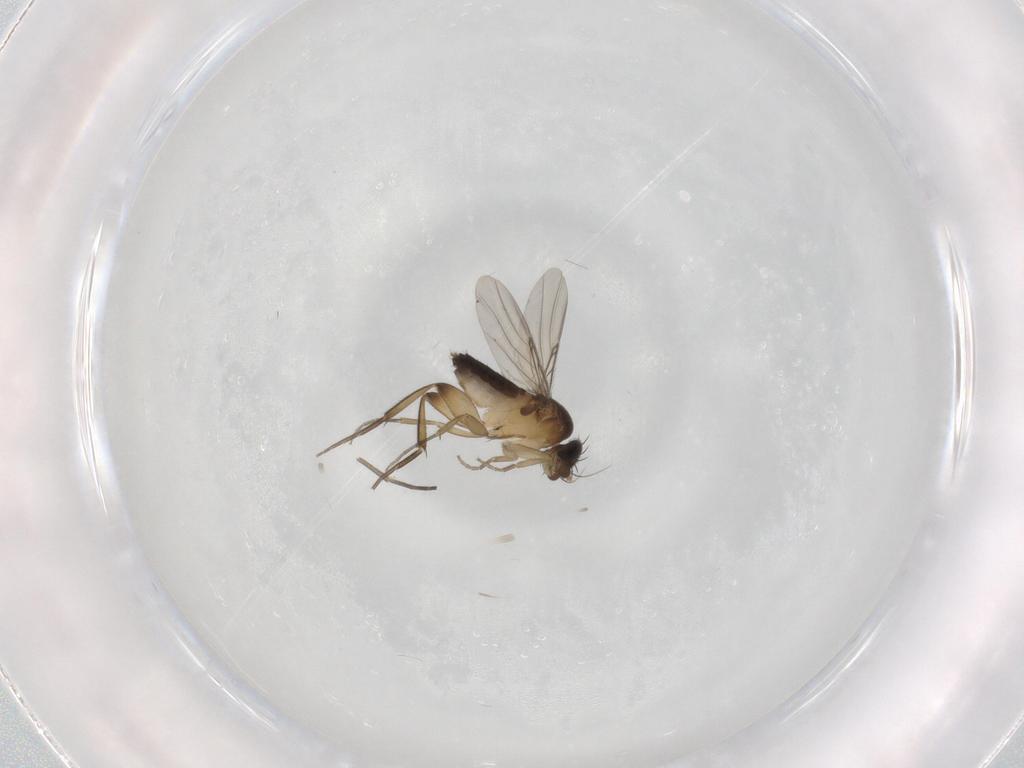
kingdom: Animalia
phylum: Arthropoda
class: Insecta
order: Diptera
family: Phoridae
